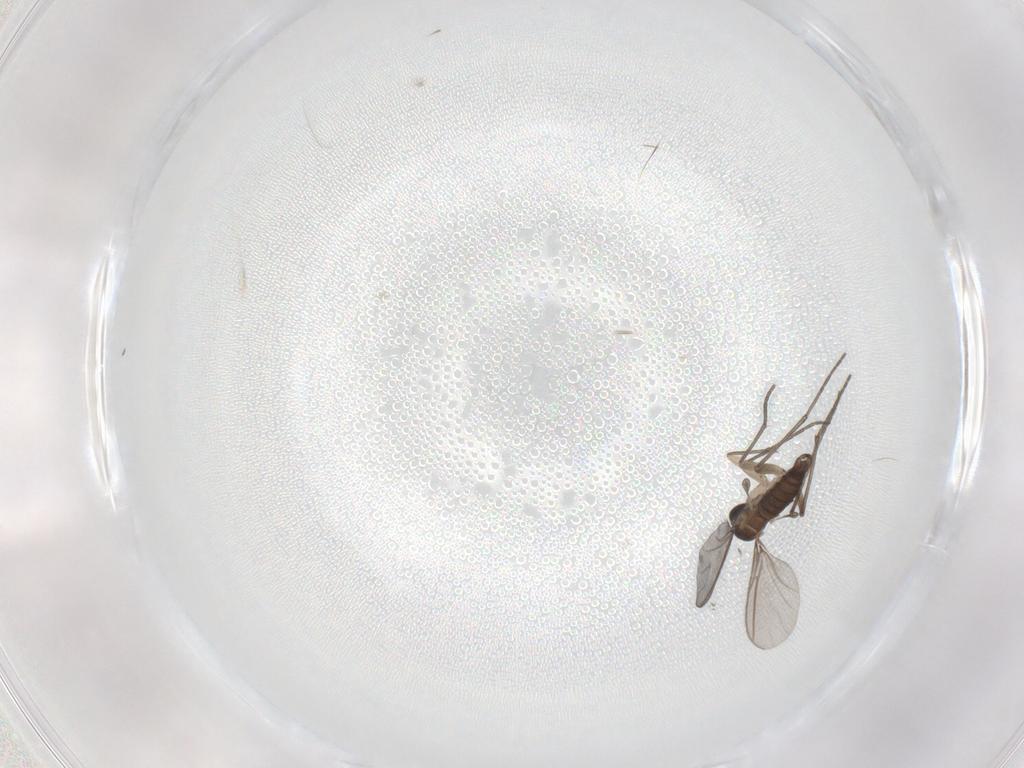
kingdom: Animalia
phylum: Arthropoda
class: Insecta
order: Diptera
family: Sciaridae
